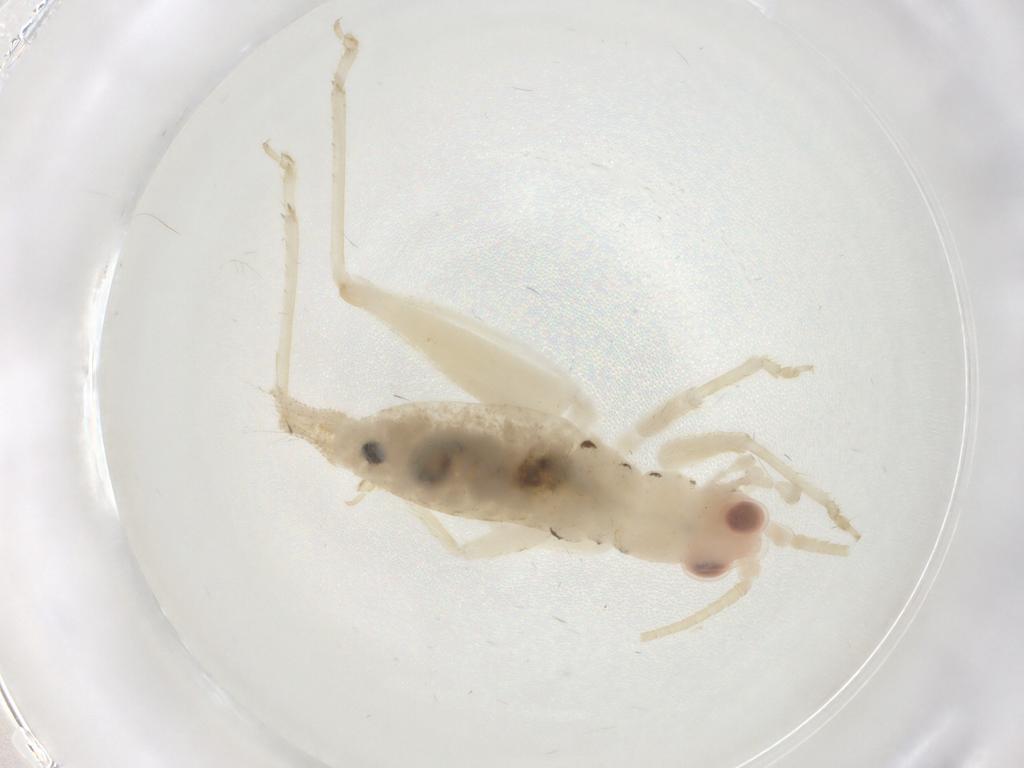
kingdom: Animalia
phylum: Arthropoda
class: Insecta
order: Orthoptera
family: Trigonidiidae
